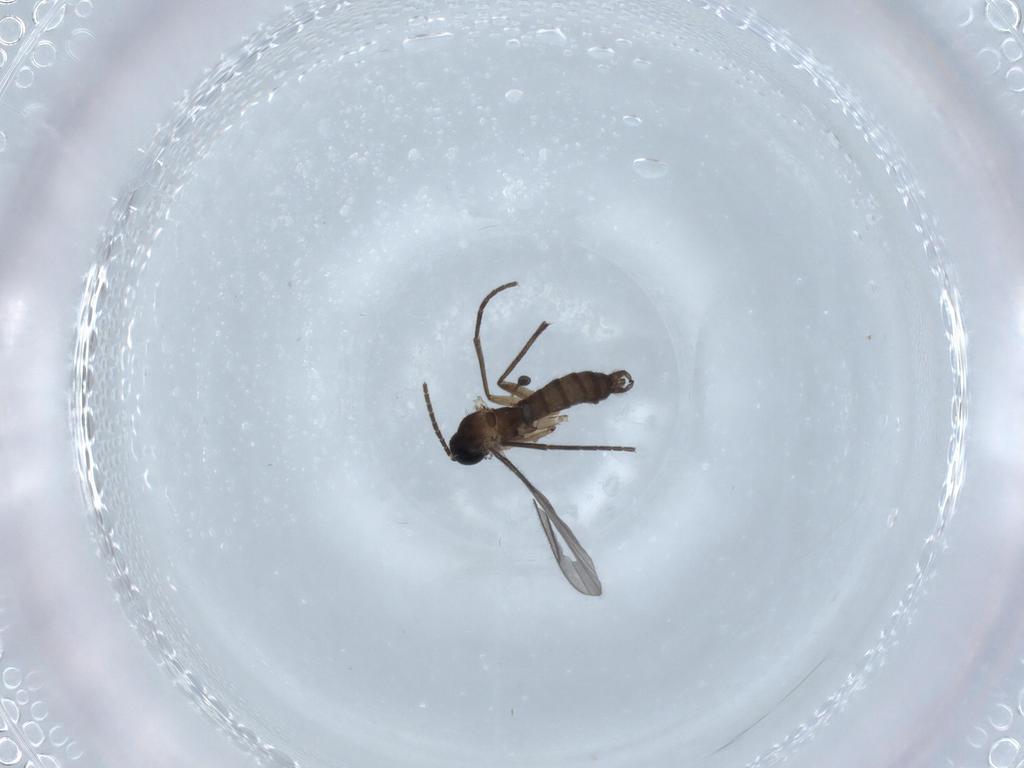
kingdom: Animalia
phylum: Arthropoda
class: Insecta
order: Diptera
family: Sciaridae
